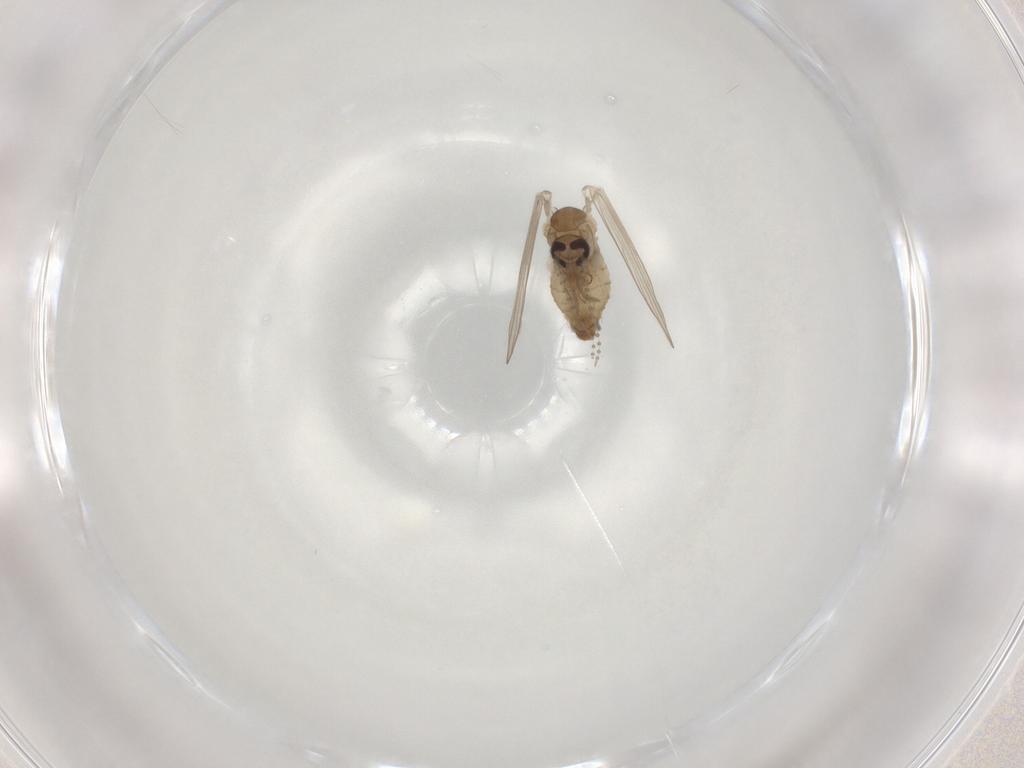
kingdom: Animalia
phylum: Arthropoda
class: Insecta
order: Diptera
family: Psychodidae
